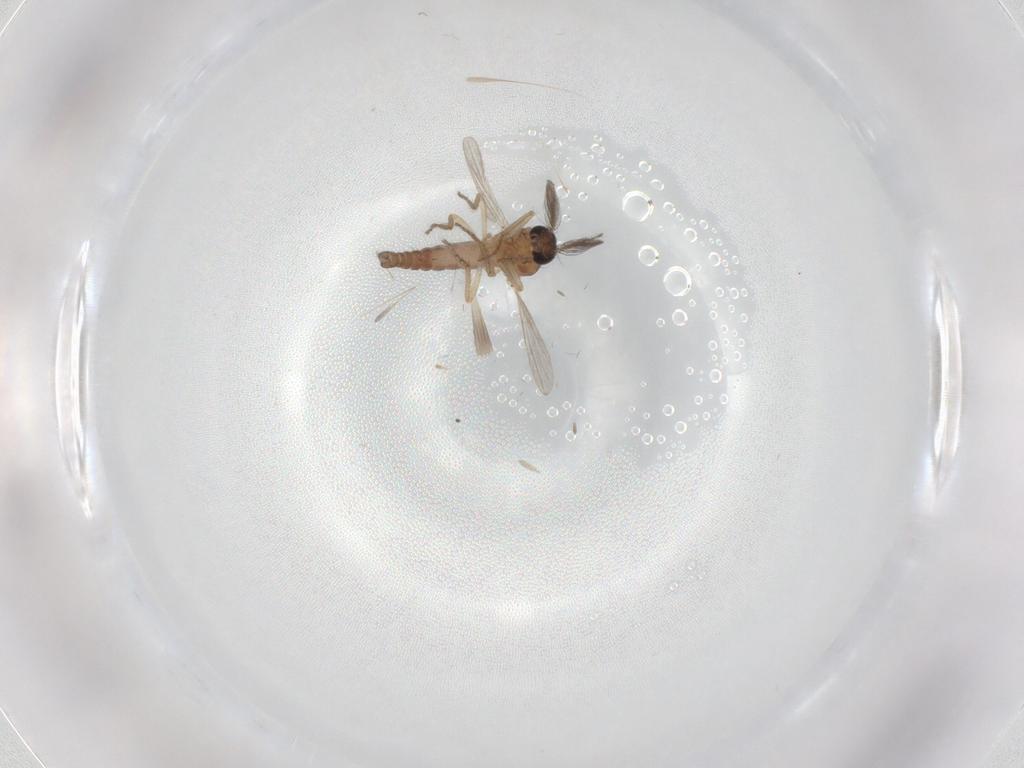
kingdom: Animalia
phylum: Arthropoda
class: Insecta
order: Diptera
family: Ceratopogonidae
